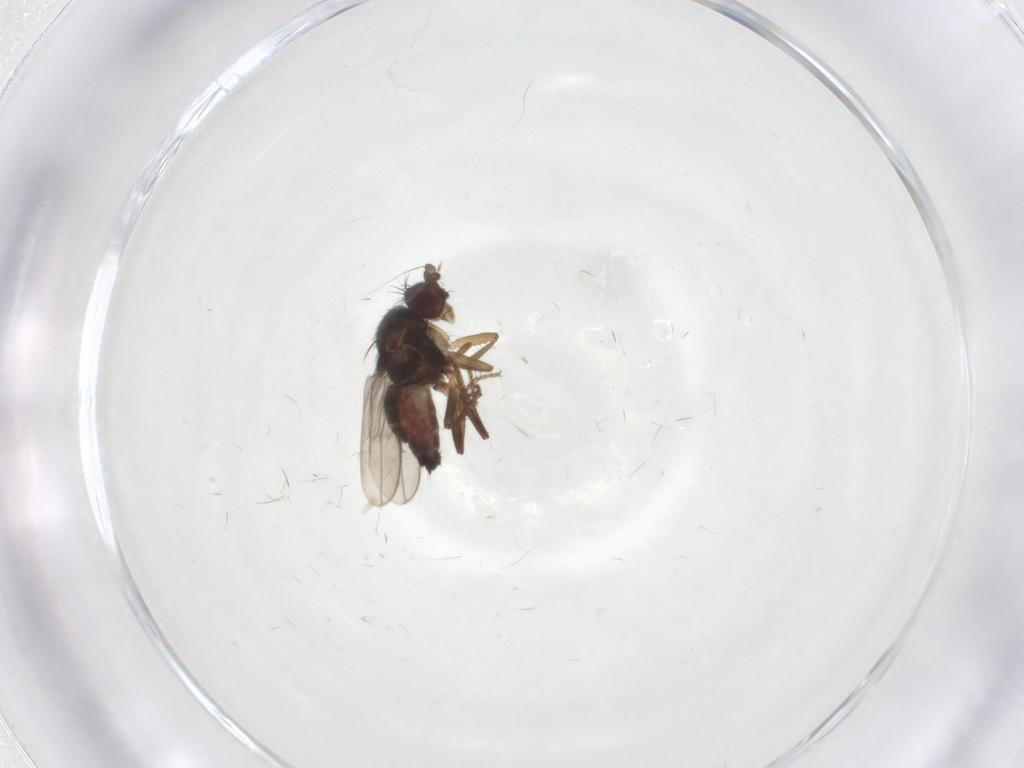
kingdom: Animalia
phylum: Arthropoda
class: Insecta
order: Diptera
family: Sphaeroceridae
